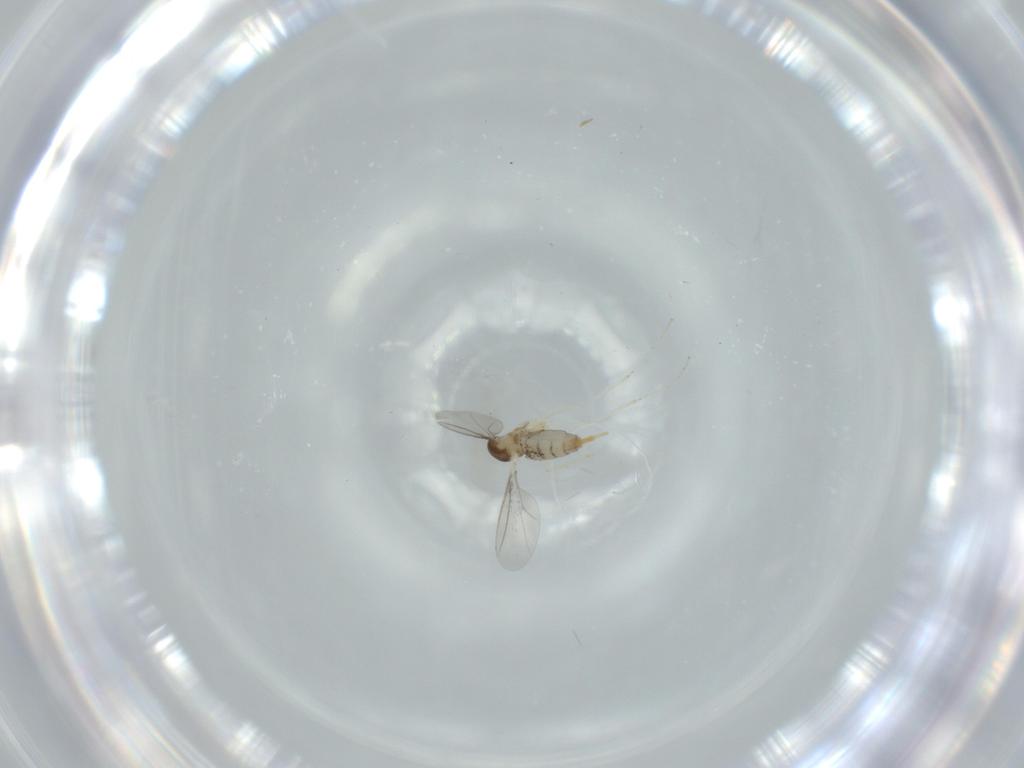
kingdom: Animalia
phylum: Arthropoda
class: Insecta
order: Diptera
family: Cecidomyiidae
